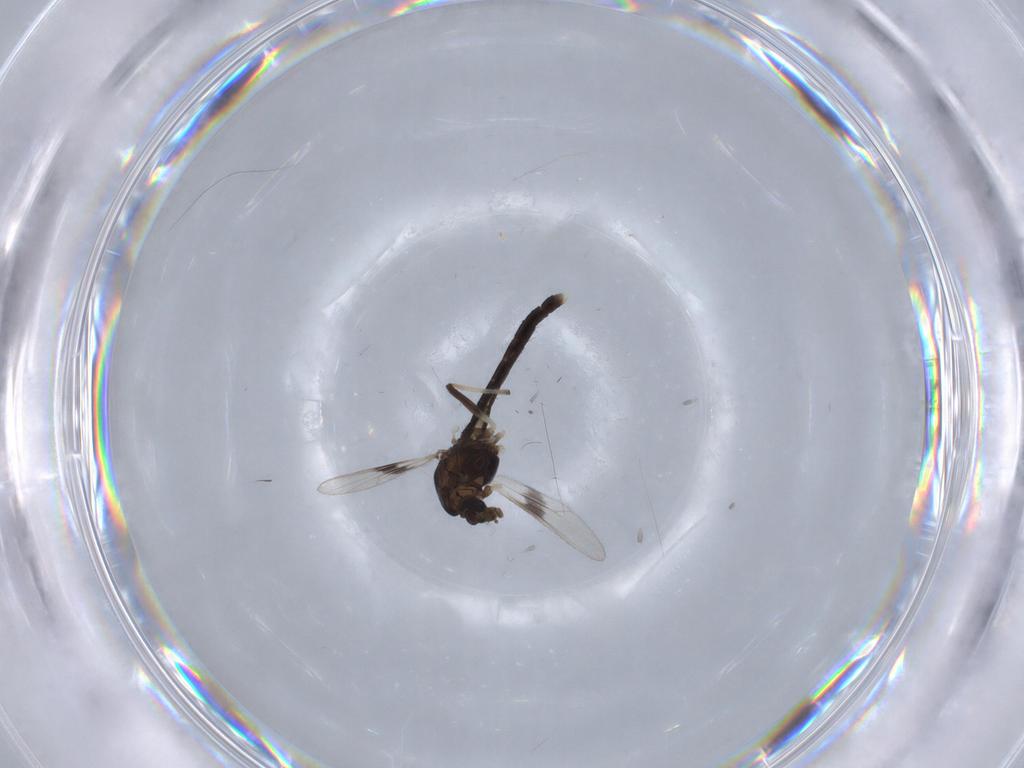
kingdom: Animalia
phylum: Arthropoda
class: Insecta
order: Diptera
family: Chironomidae
